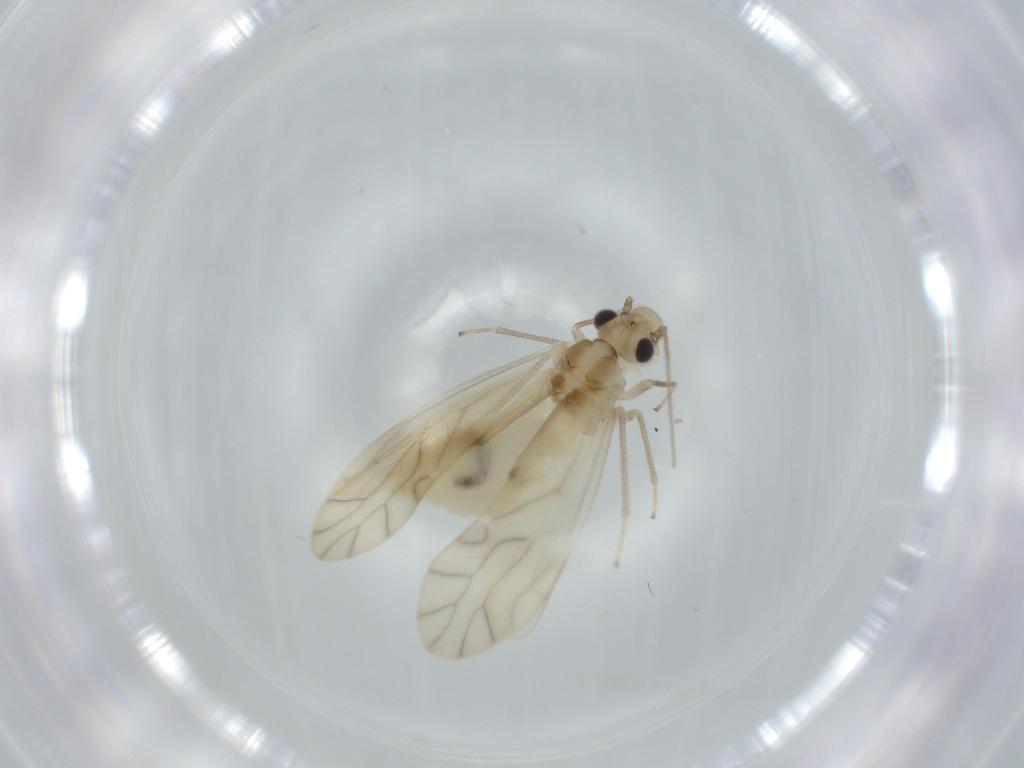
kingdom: Animalia
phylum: Arthropoda
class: Insecta
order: Psocodea
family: Caeciliusidae
